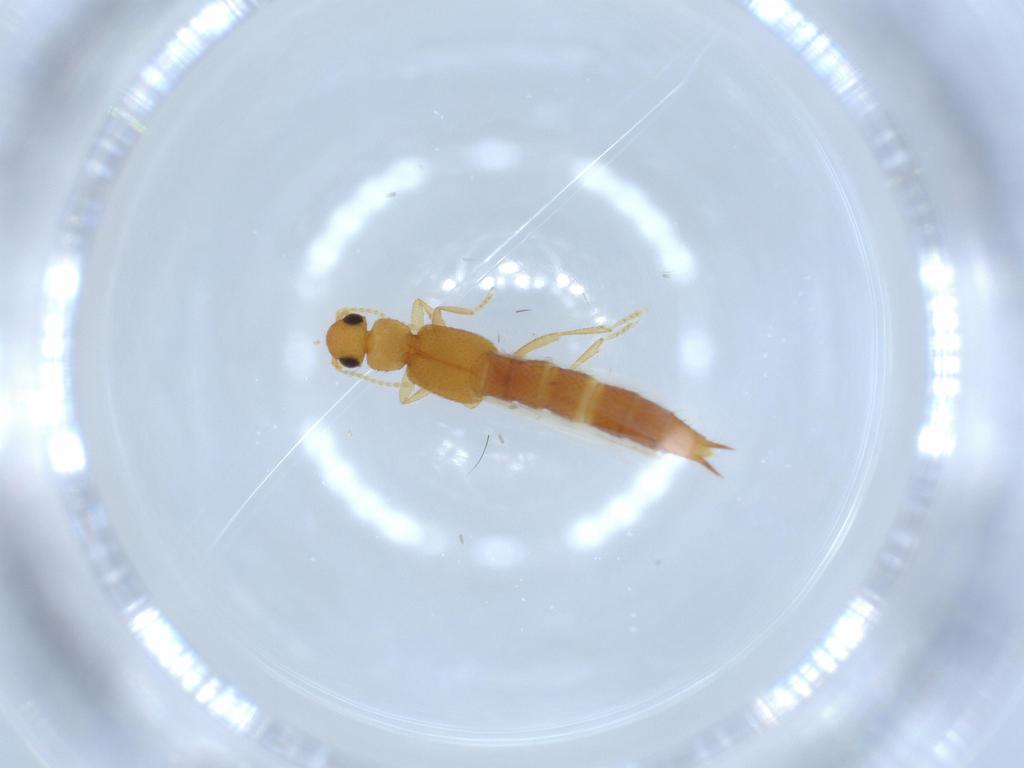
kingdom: Animalia
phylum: Arthropoda
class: Insecta
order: Coleoptera
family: Staphylinidae
